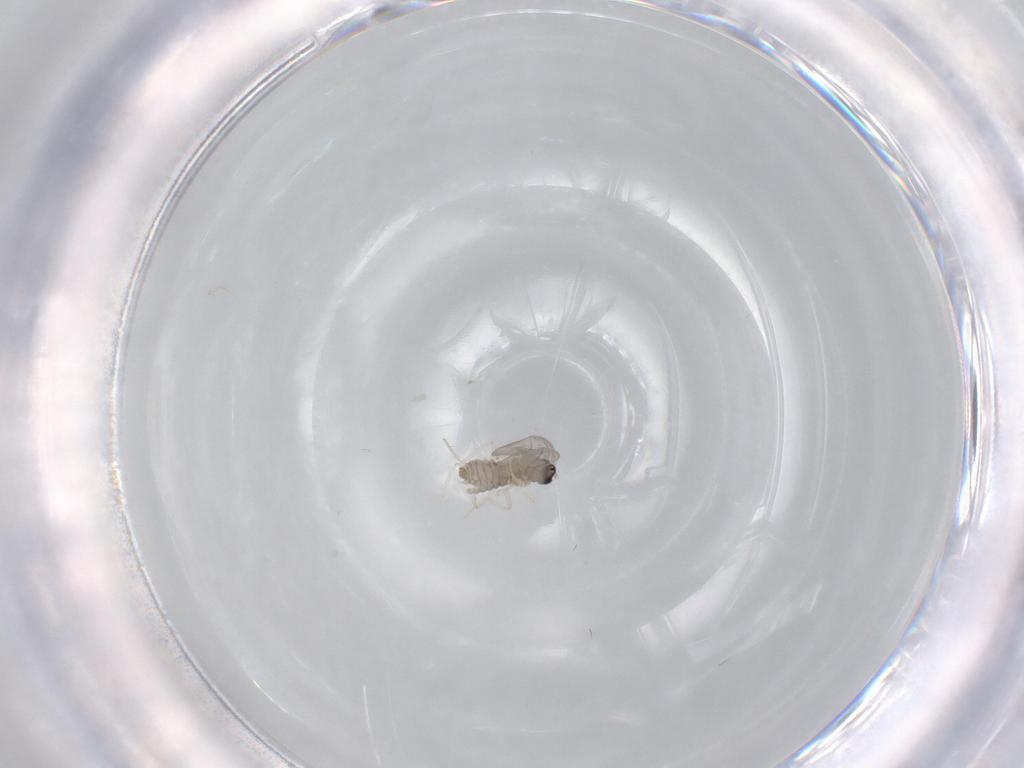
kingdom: Animalia
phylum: Arthropoda
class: Insecta
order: Diptera
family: Cecidomyiidae
